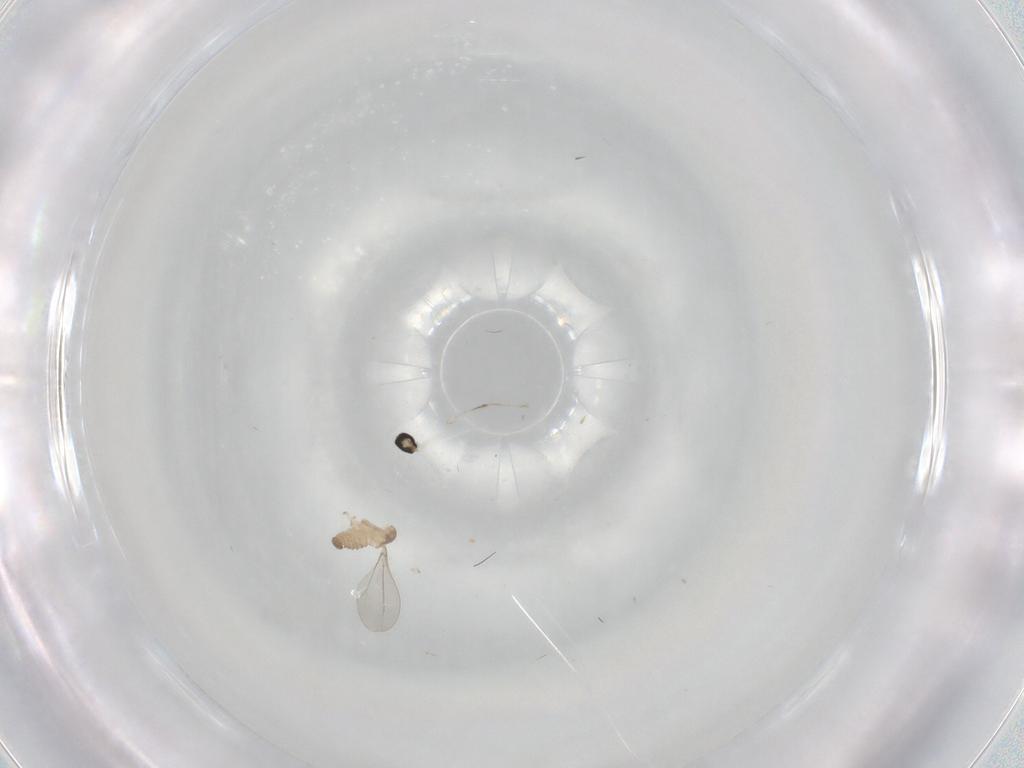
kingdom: Animalia
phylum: Arthropoda
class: Insecta
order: Diptera
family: Cecidomyiidae
